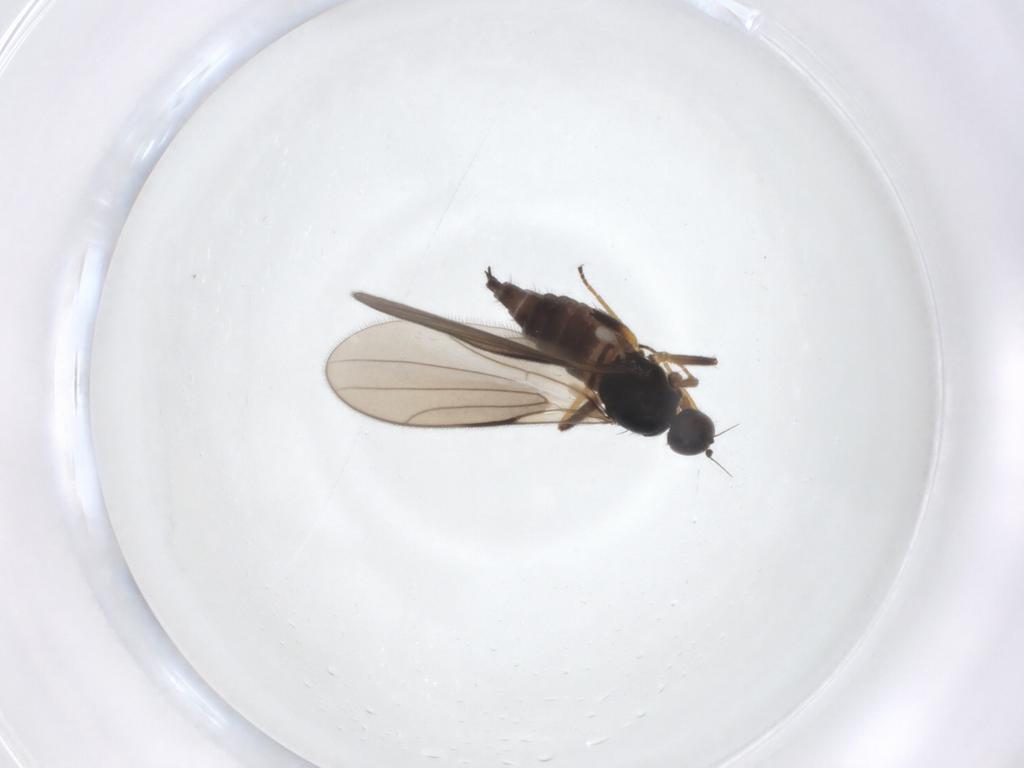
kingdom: Animalia
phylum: Arthropoda
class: Insecta
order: Diptera
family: Hybotidae
